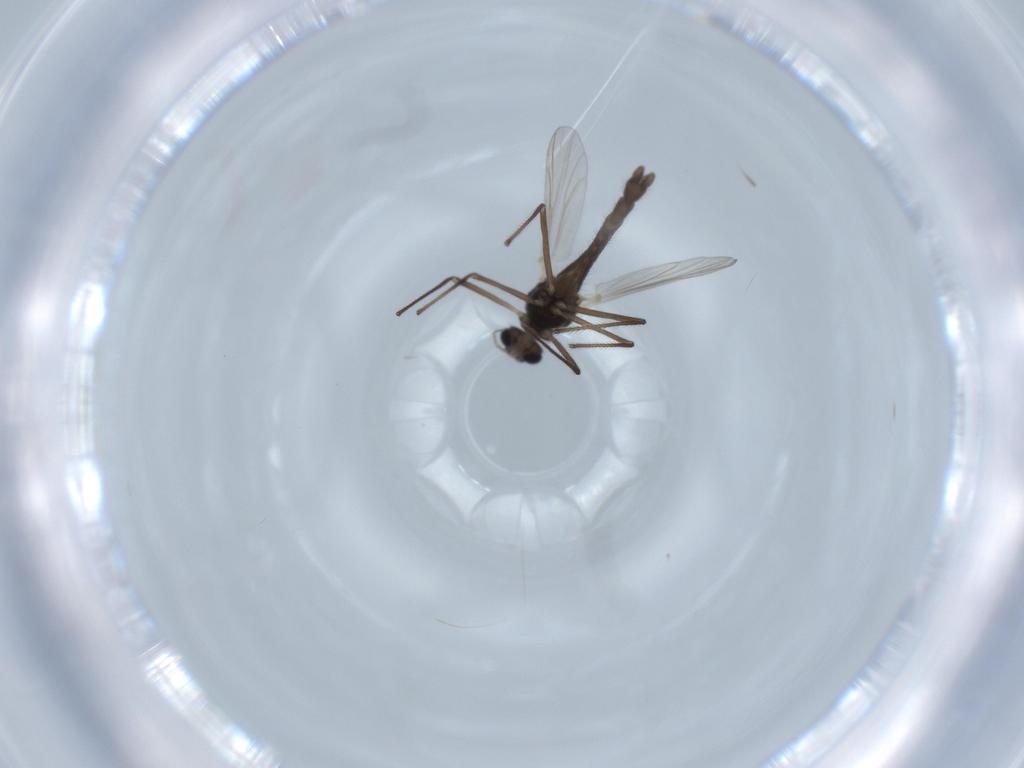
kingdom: Animalia
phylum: Arthropoda
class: Insecta
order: Diptera
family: Chironomidae
